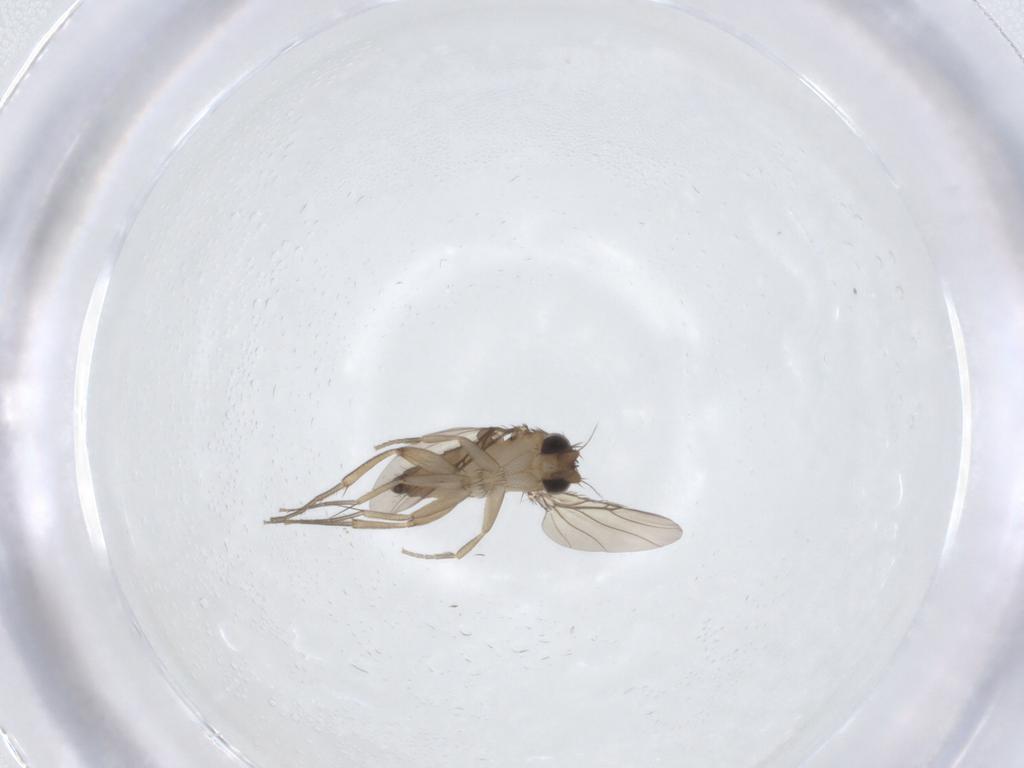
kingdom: Animalia
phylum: Arthropoda
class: Insecta
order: Diptera
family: Phoridae
